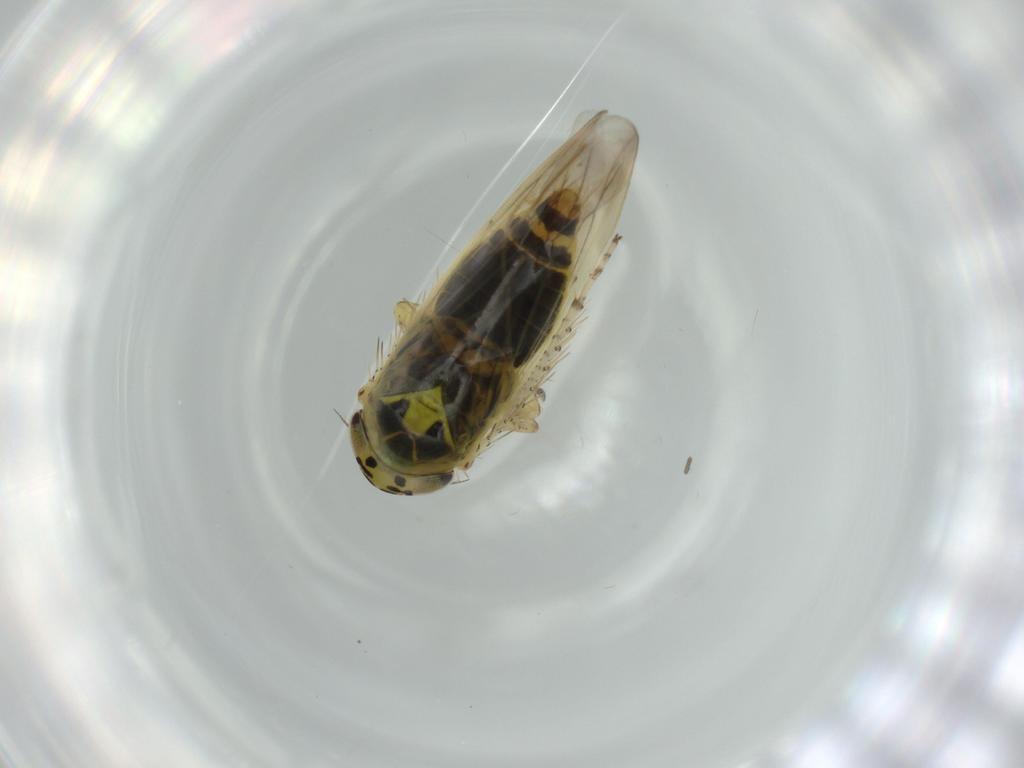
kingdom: Animalia
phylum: Arthropoda
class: Insecta
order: Hemiptera
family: Cicadellidae
